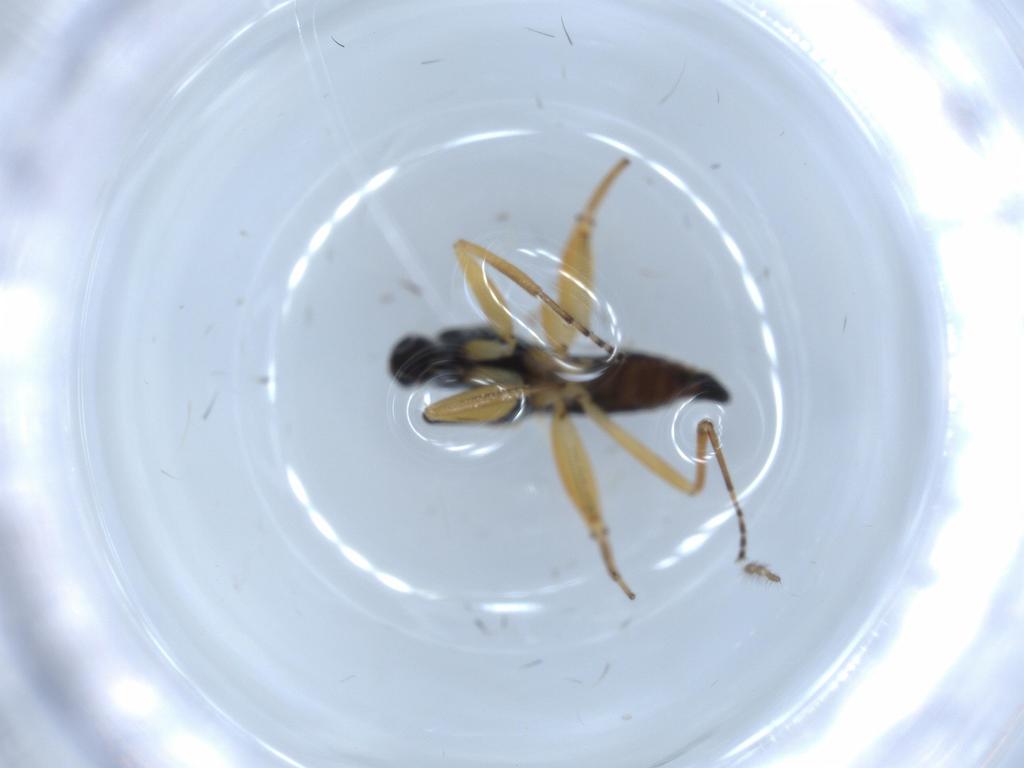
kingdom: Animalia
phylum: Arthropoda
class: Insecta
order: Diptera
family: Hybotidae
